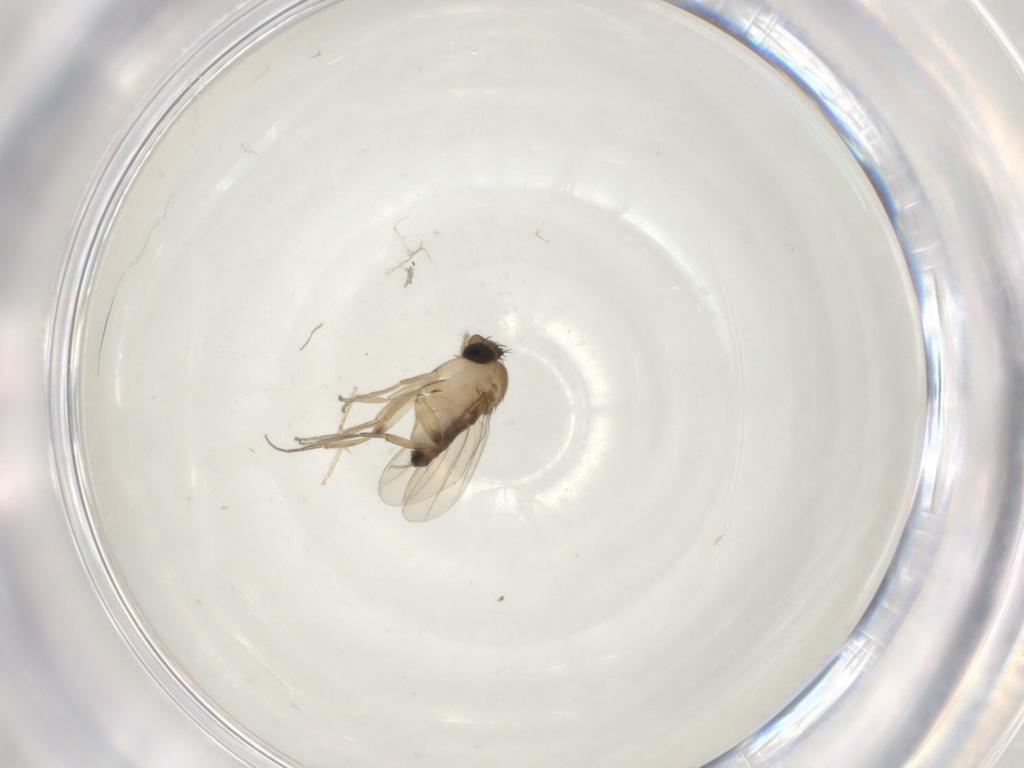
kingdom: Animalia
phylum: Arthropoda
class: Insecta
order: Diptera
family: Phoridae
